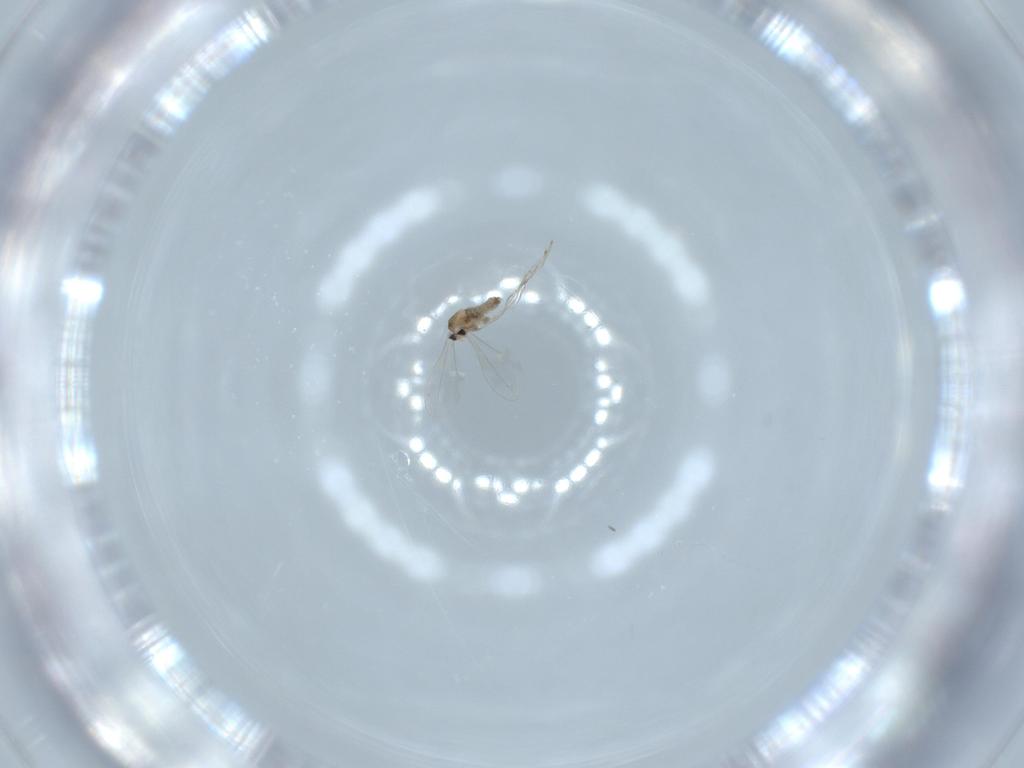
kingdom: Animalia
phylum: Arthropoda
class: Insecta
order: Diptera
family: Cecidomyiidae
